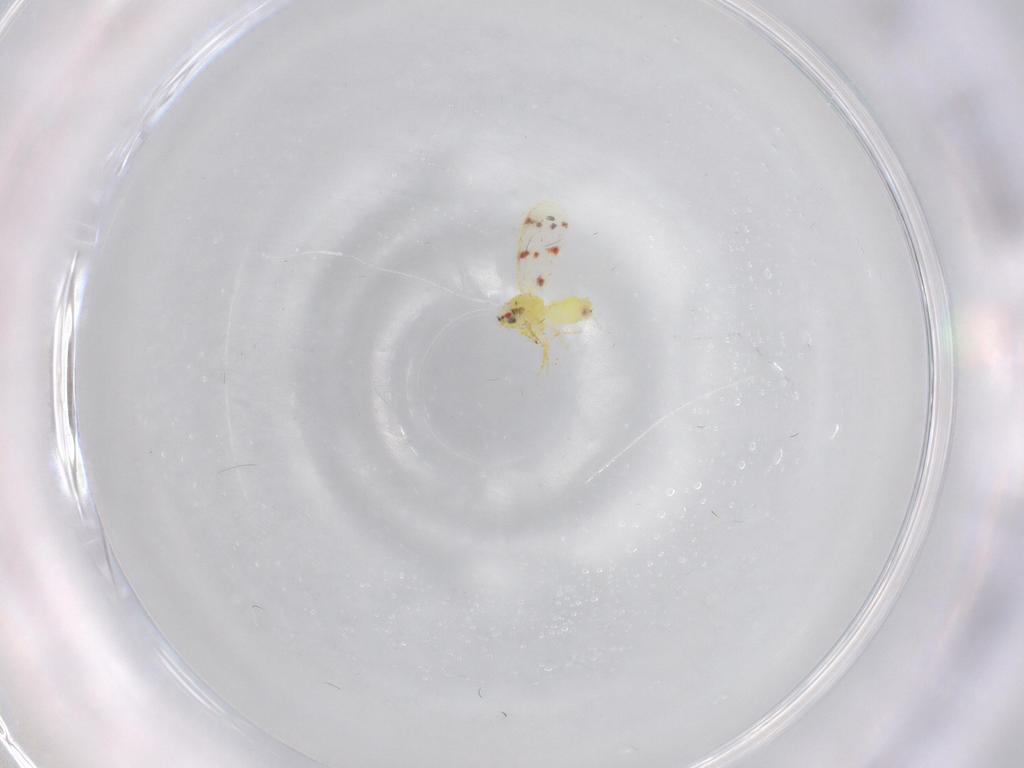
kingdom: Animalia
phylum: Arthropoda
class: Insecta
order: Hemiptera
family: Aleyrodidae
